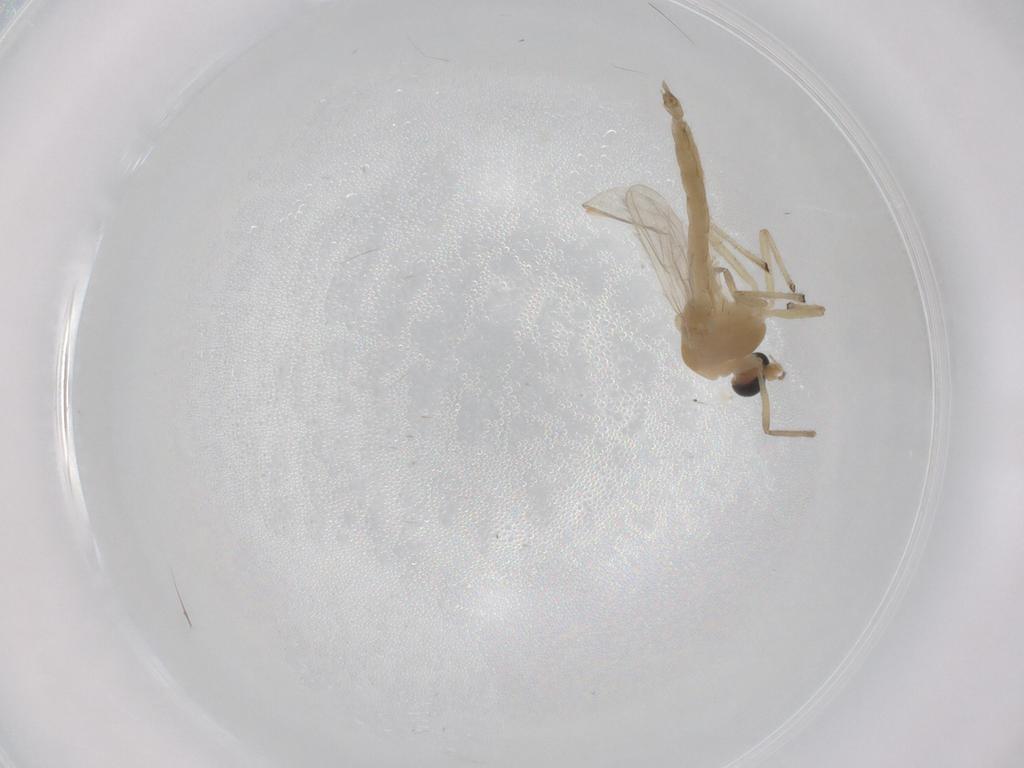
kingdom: Animalia
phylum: Arthropoda
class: Insecta
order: Diptera
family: Chironomidae
